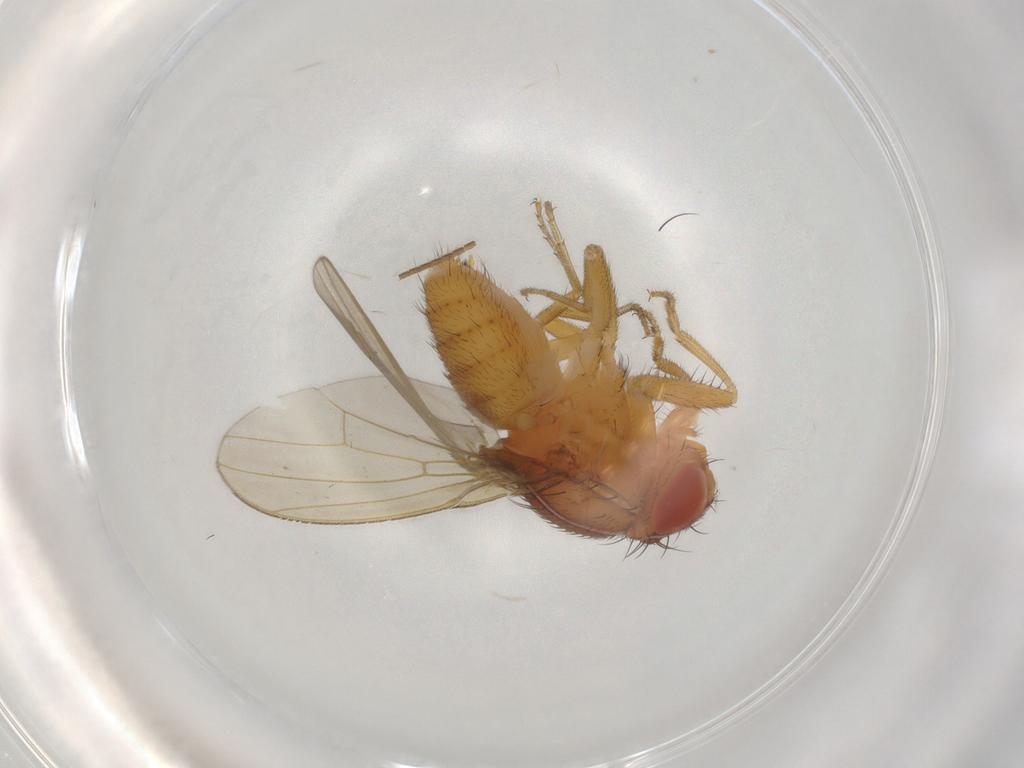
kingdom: Animalia
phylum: Arthropoda
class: Insecta
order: Diptera
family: Drosophilidae
